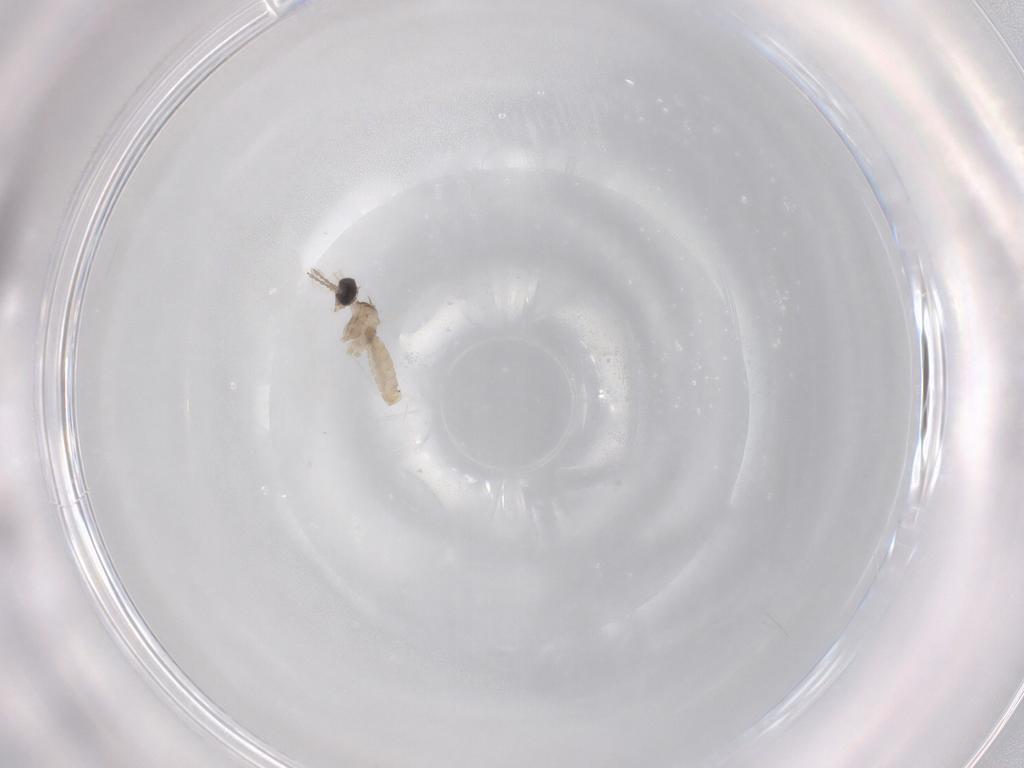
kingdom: Animalia
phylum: Arthropoda
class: Insecta
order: Diptera
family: Cecidomyiidae
